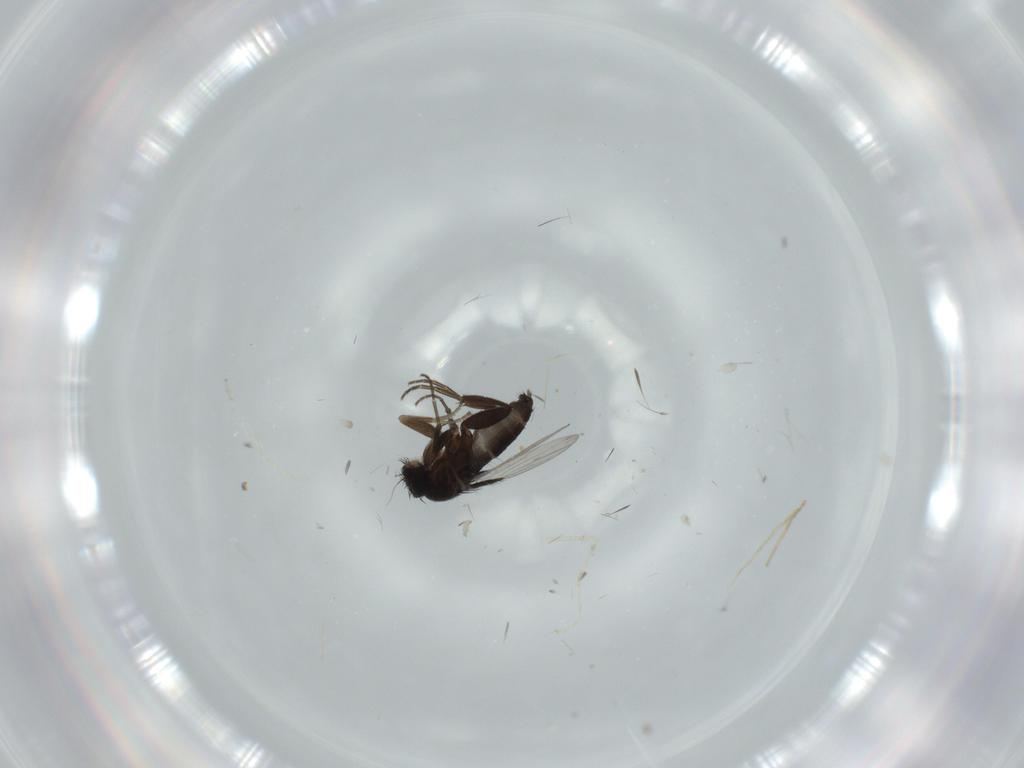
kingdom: Animalia
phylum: Arthropoda
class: Insecta
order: Diptera
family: Phoridae
